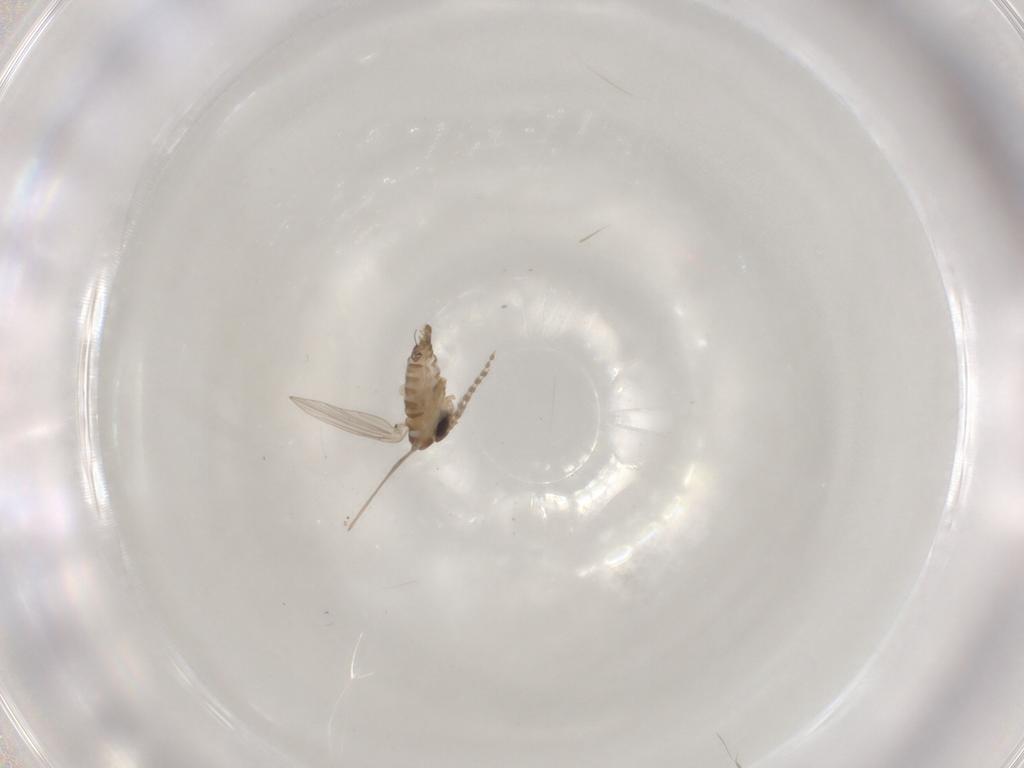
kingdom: Animalia
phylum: Arthropoda
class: Insecta
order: Diptera
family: Psychodidae
